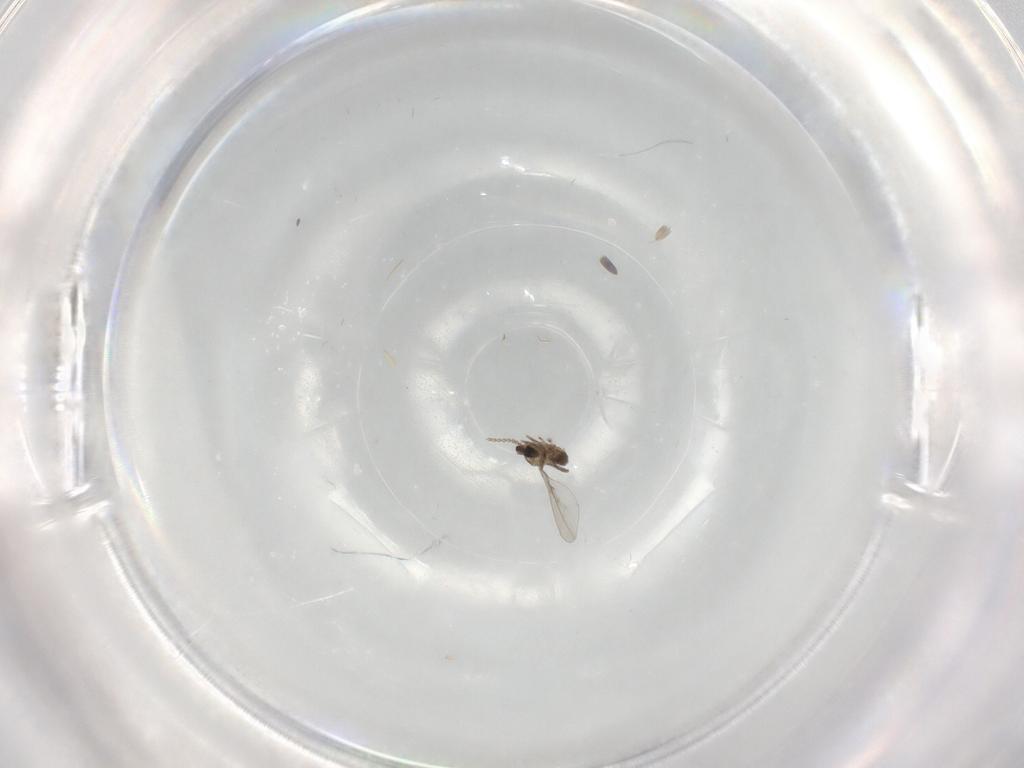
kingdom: Animalia
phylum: Arthropoda
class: Insecta
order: Diptera
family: Cecidomyiidae
